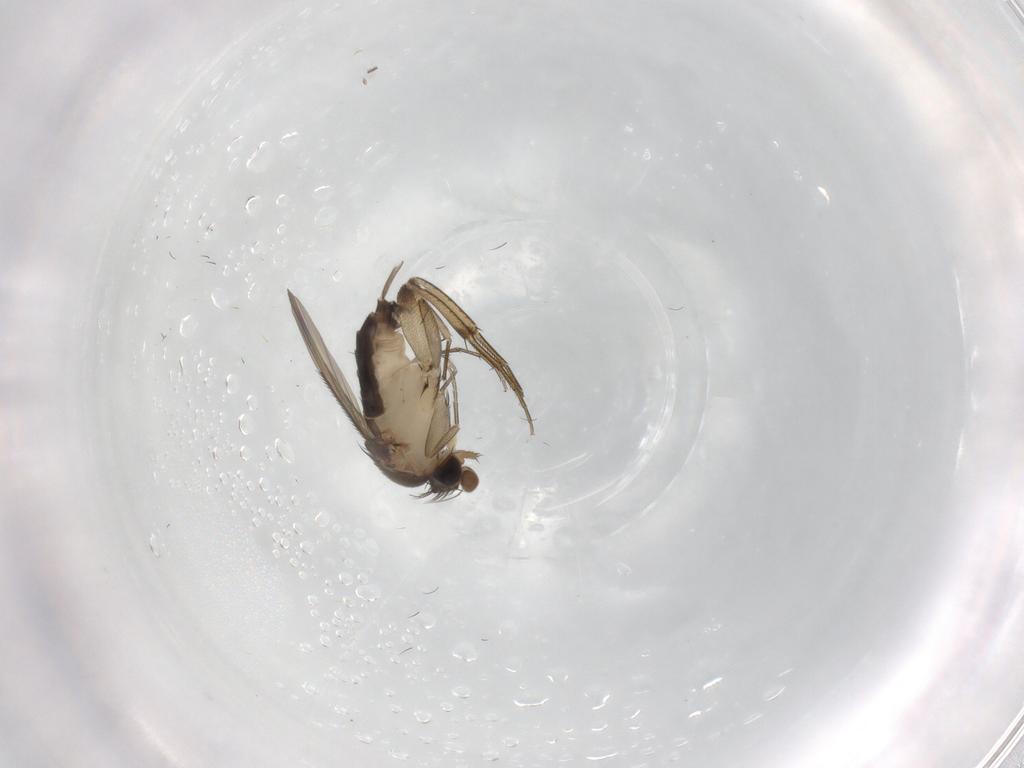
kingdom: Animalia
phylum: Arthropoda
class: Insecta
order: Diptera
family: Phoridae
